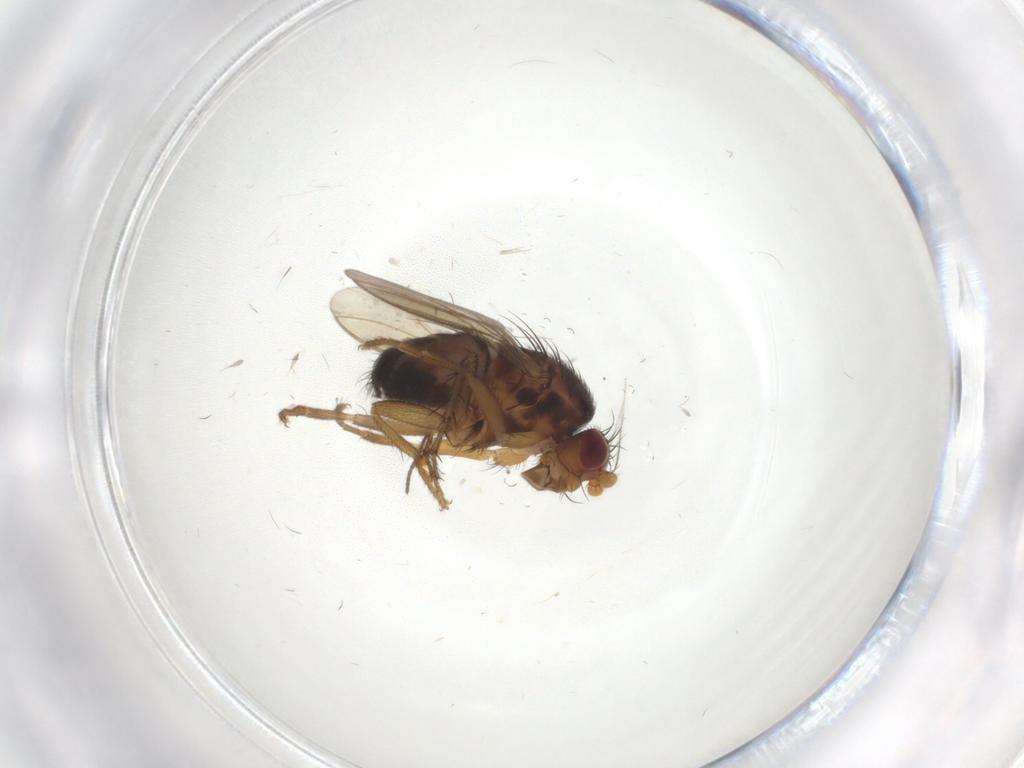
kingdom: Animalia
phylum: Arthropoda
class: Insecta
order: Diptera
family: Sphaeroceridae
